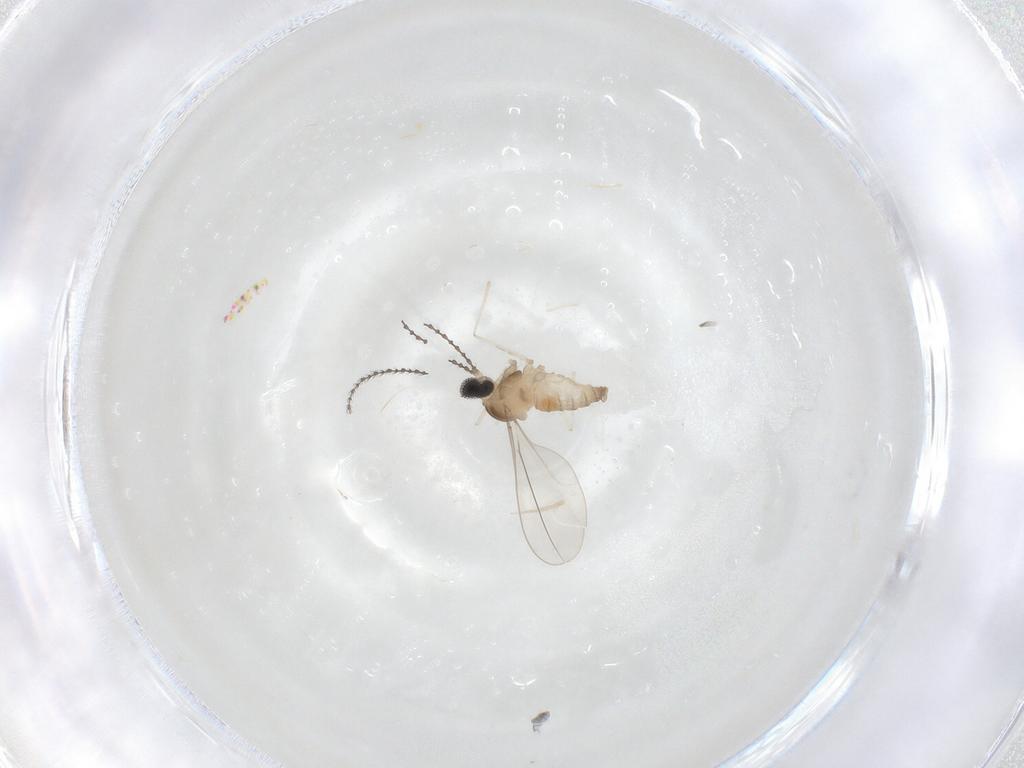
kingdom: Animalia
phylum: Arthropoda
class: Insecta
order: Diptera
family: Cecidomyiidae
